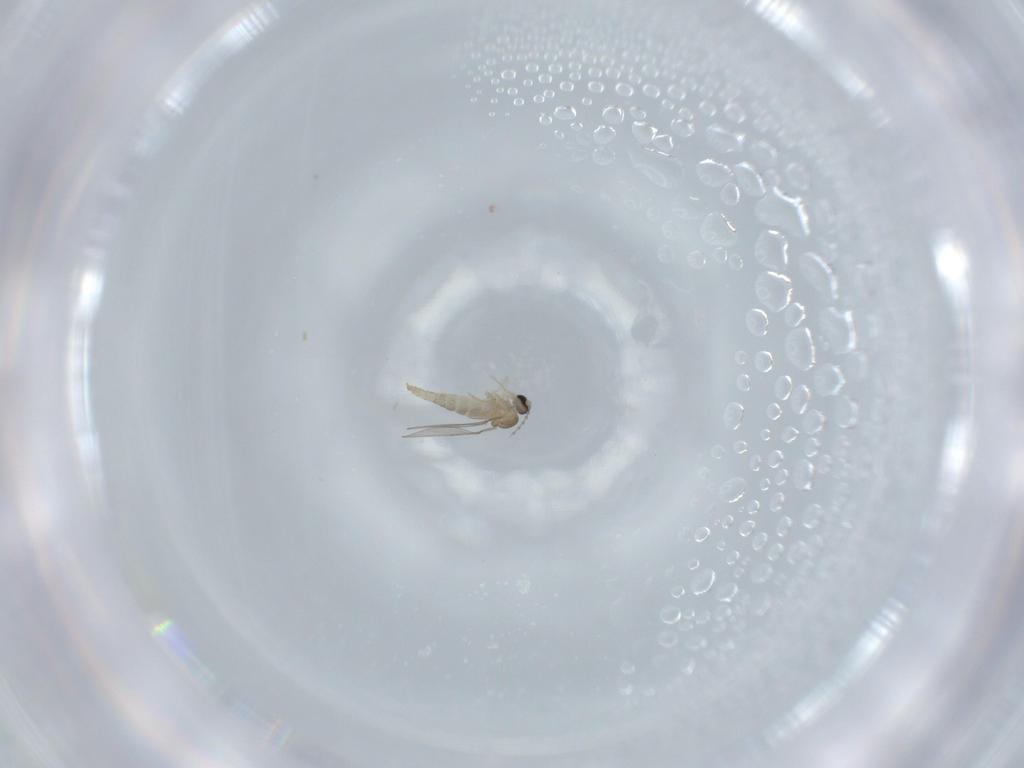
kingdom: Animalia
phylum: Arthropoda
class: Insecta
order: Diptera
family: Cecidomyiidae
